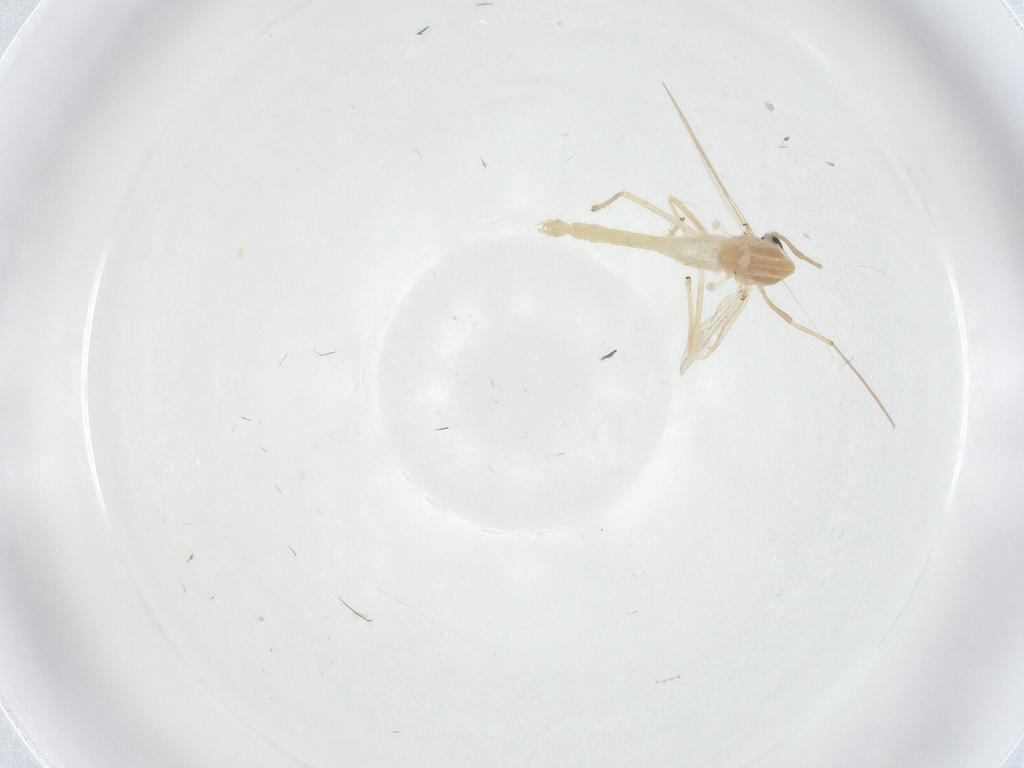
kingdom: Animalia
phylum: Arthropoda
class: Insecta
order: Diptera
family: Chironomidae
